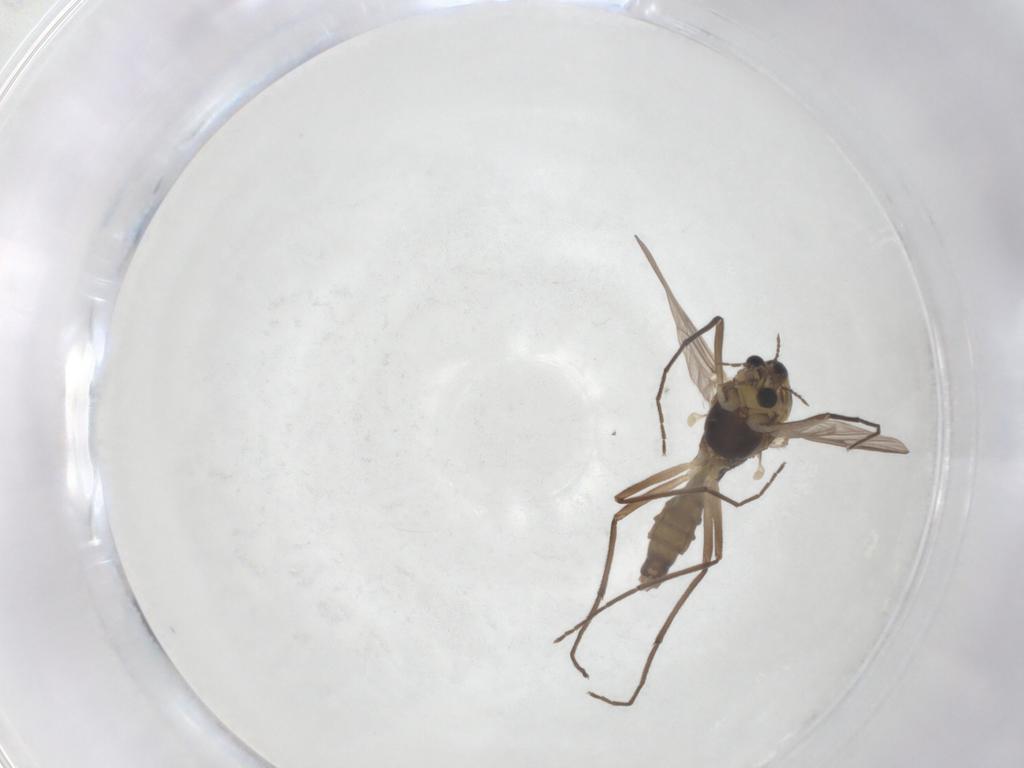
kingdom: Animalia
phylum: Arthropoda
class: Insecta
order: Diptera
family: Chironomidae
